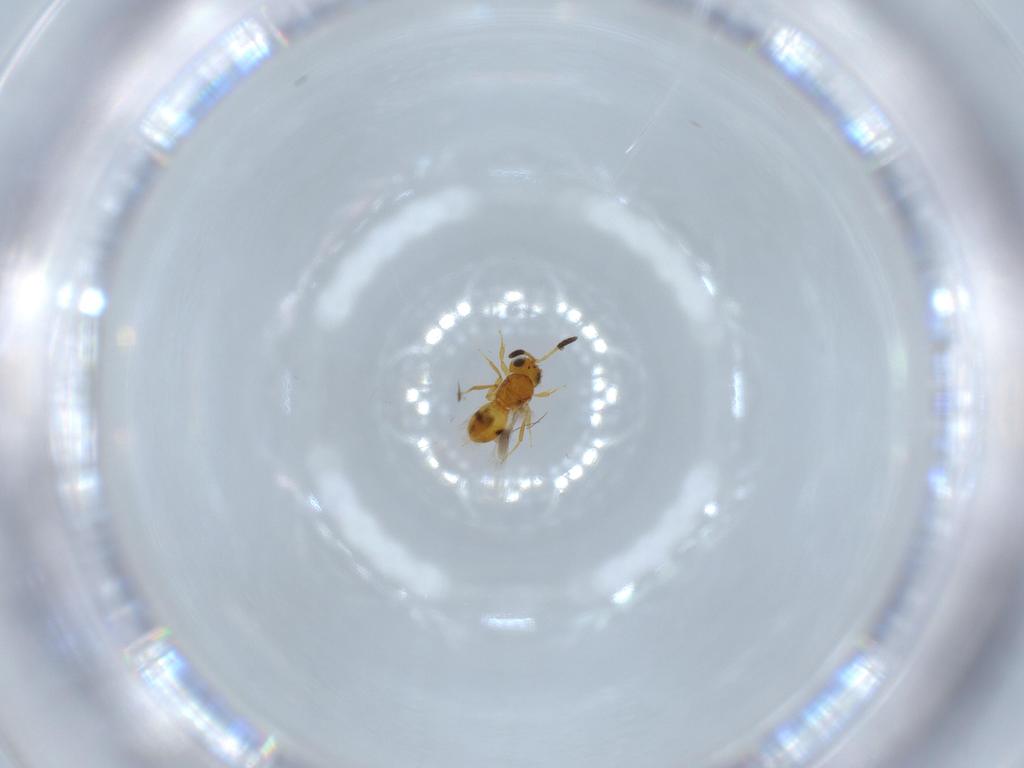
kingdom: Animalia
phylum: Arthropoda
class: Insecta
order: Hymenoptera
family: Scelionidae
